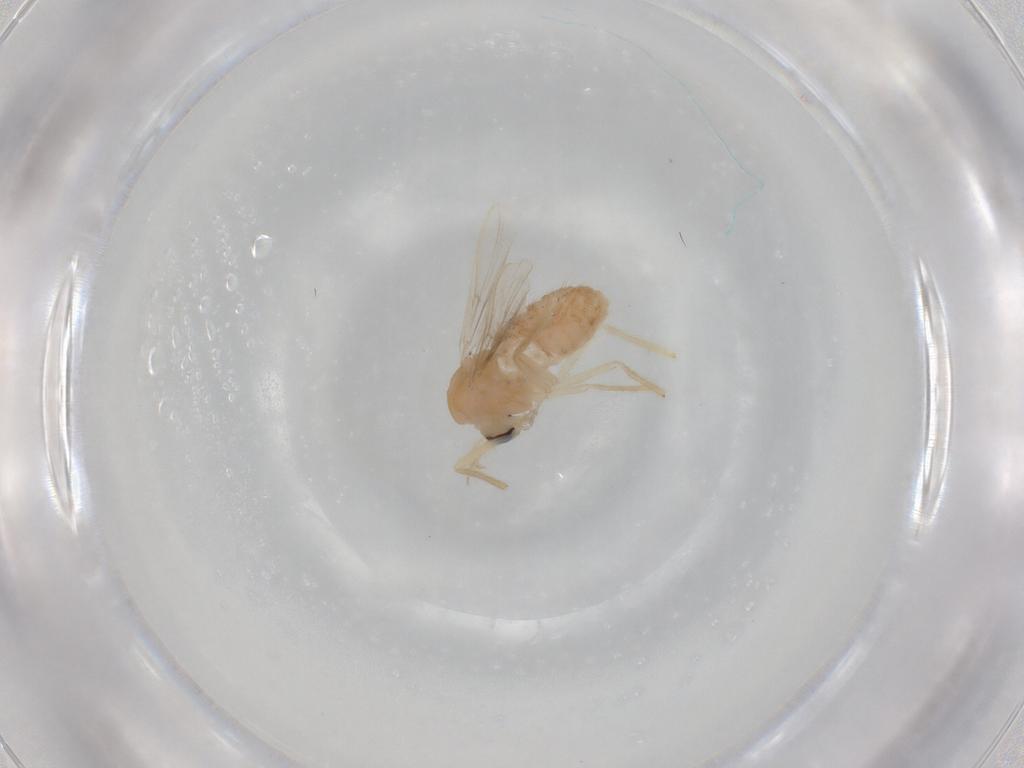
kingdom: Animalia
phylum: Arthropoda
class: Insecta
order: Diptera
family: Chironomidae
